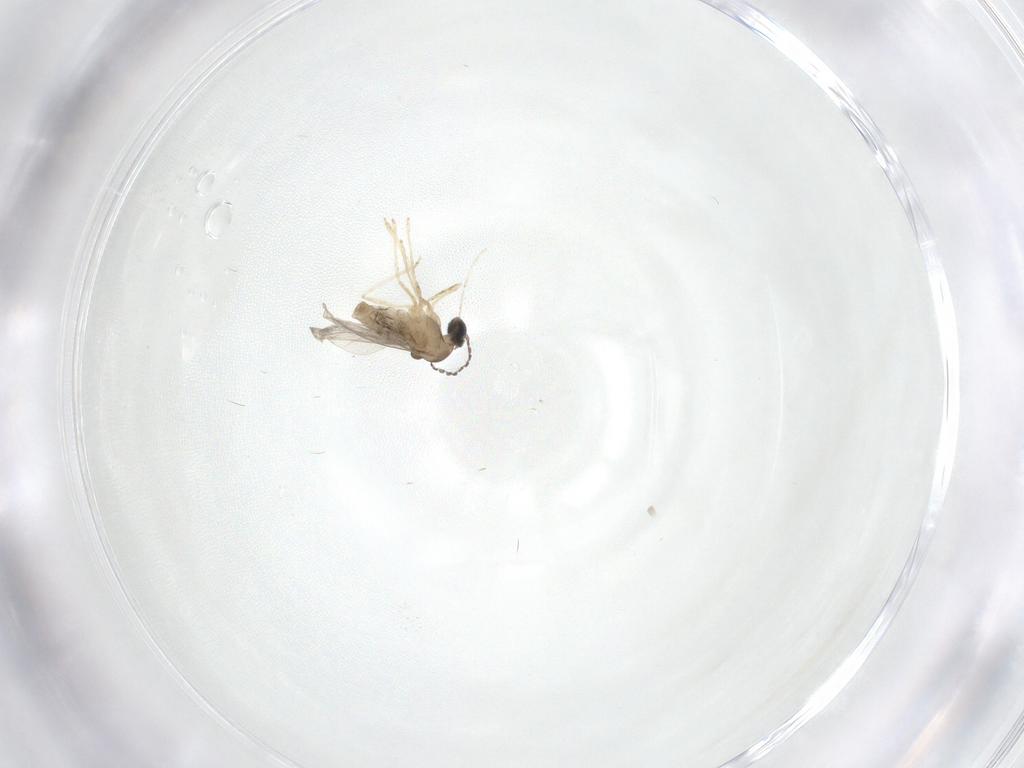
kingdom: Animalia
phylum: Arthropoda
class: Insecta
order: Diptera
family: Cecidomyiidae
